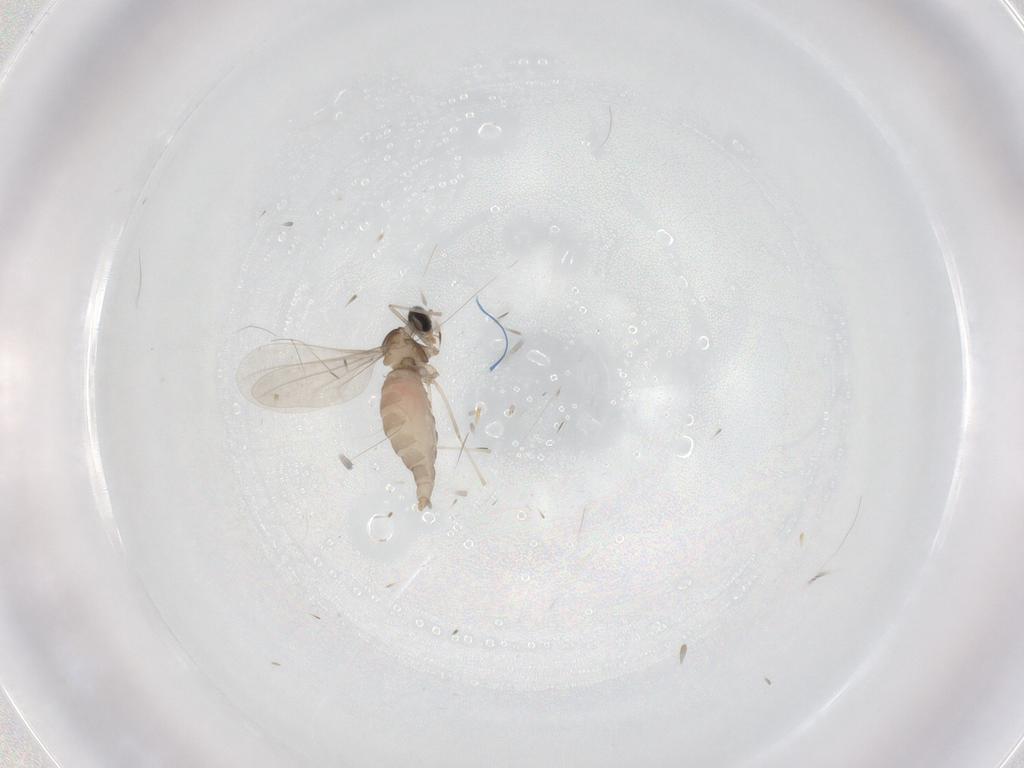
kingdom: Animalia
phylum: Arthropoda
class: Insecta
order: Diptera
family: Cecidomyiidae
